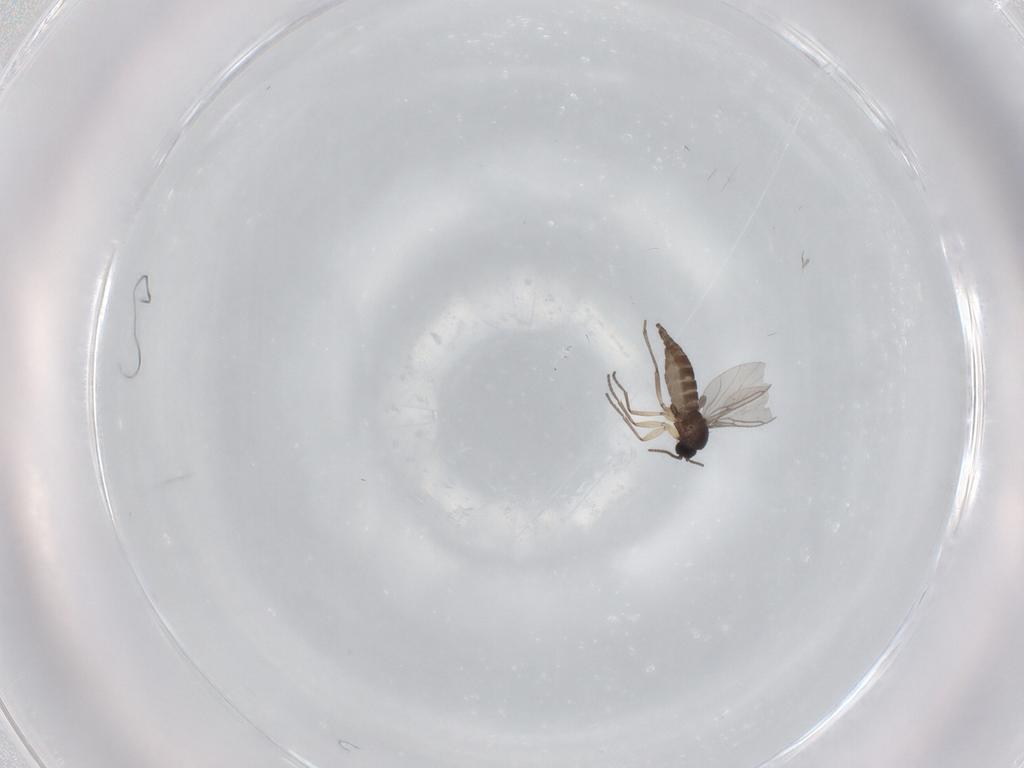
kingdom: Animalia
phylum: Arthropoda
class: Insecta
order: Diptera
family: Sciaridae
